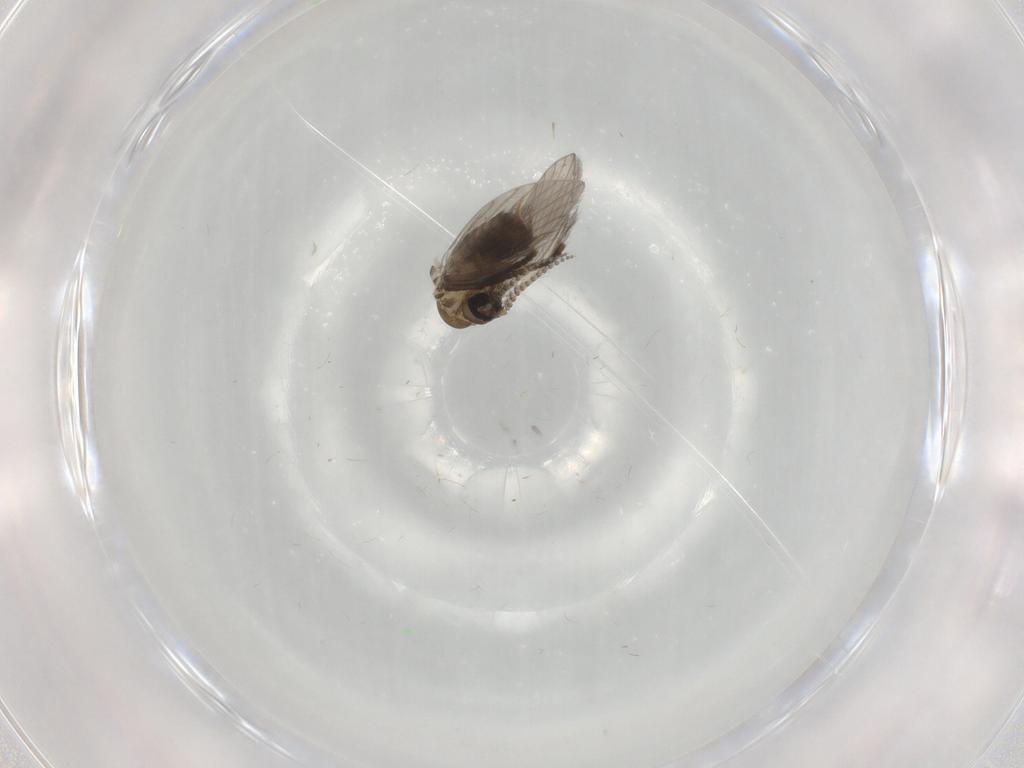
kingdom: Animalia
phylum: Arthropoda
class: Insecta
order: Diptera
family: Psychodidae
